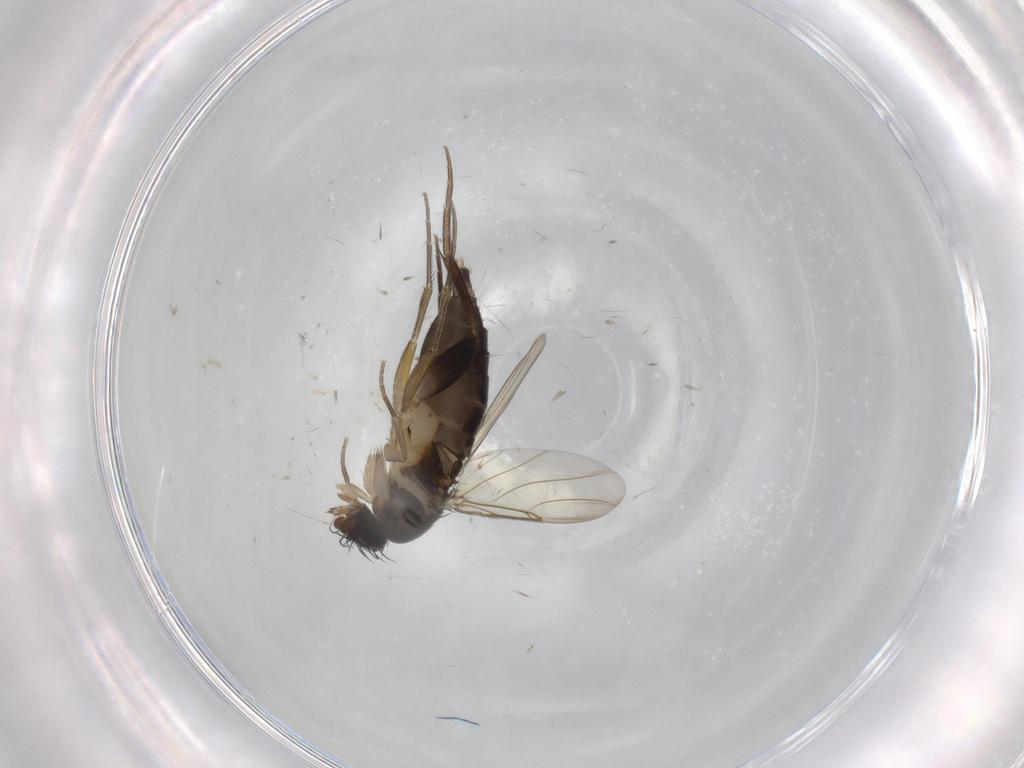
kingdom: Animalia
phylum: Arthropoda
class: Insecta
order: Diptera
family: Phoridae
